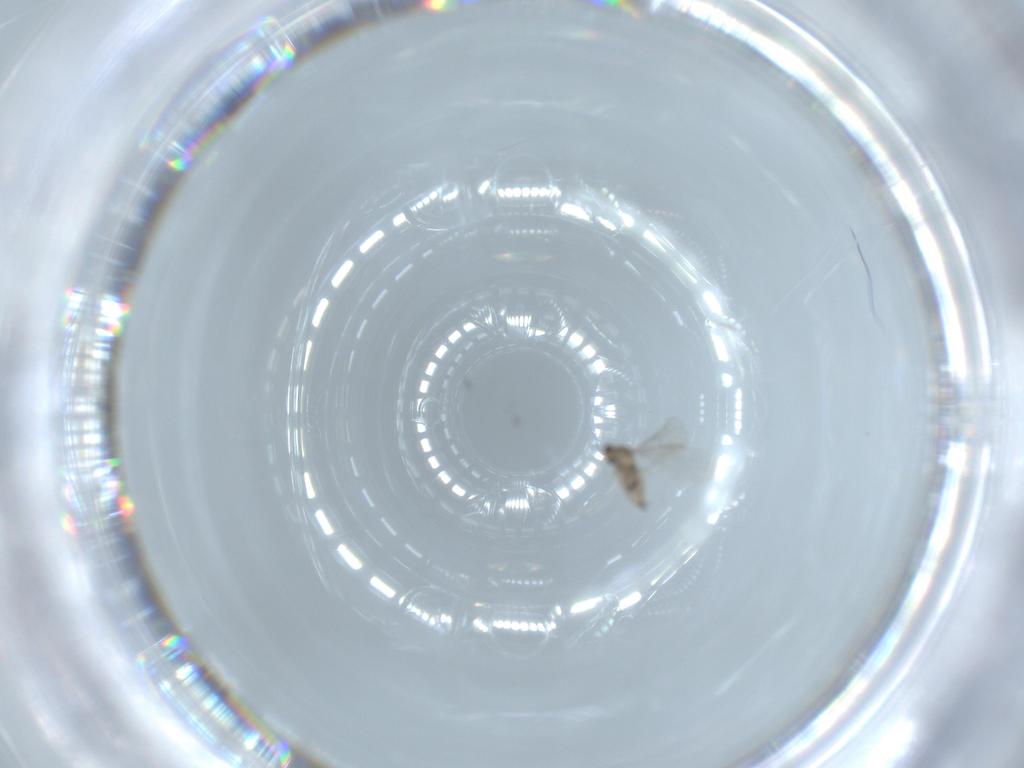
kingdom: Animalia
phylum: Arthropoda
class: Insecta
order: Diptera
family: Cecidomyiidae
